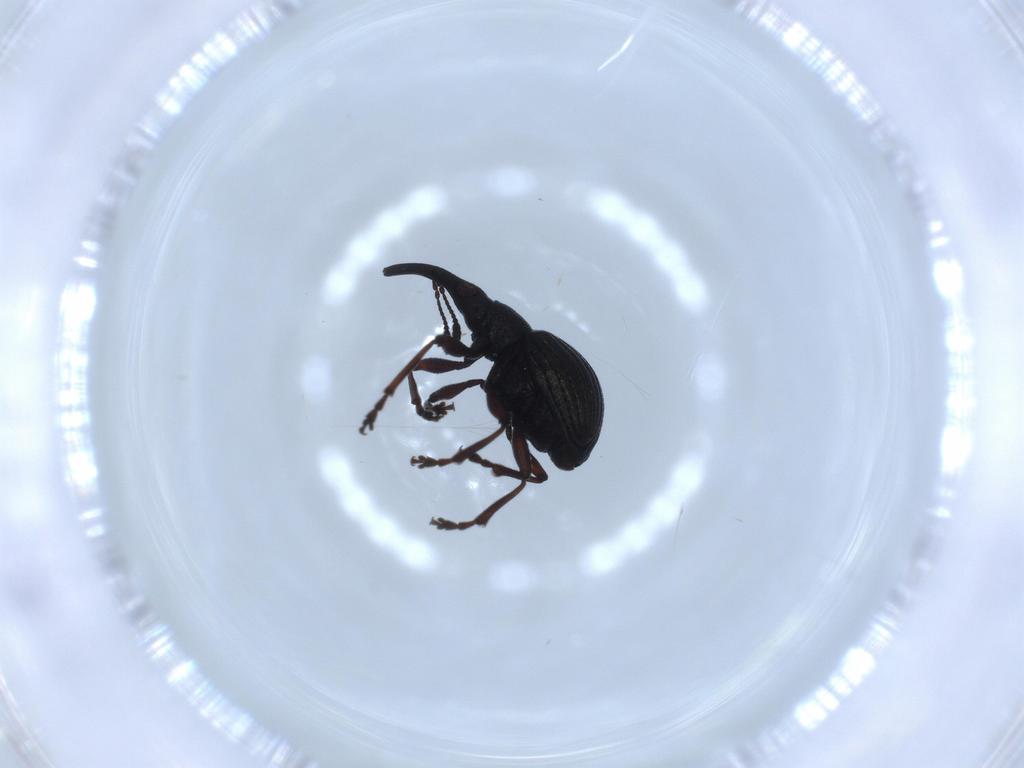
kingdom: Animalia
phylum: Arthropoda
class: Insecta
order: Coleoptera
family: Brentidae
